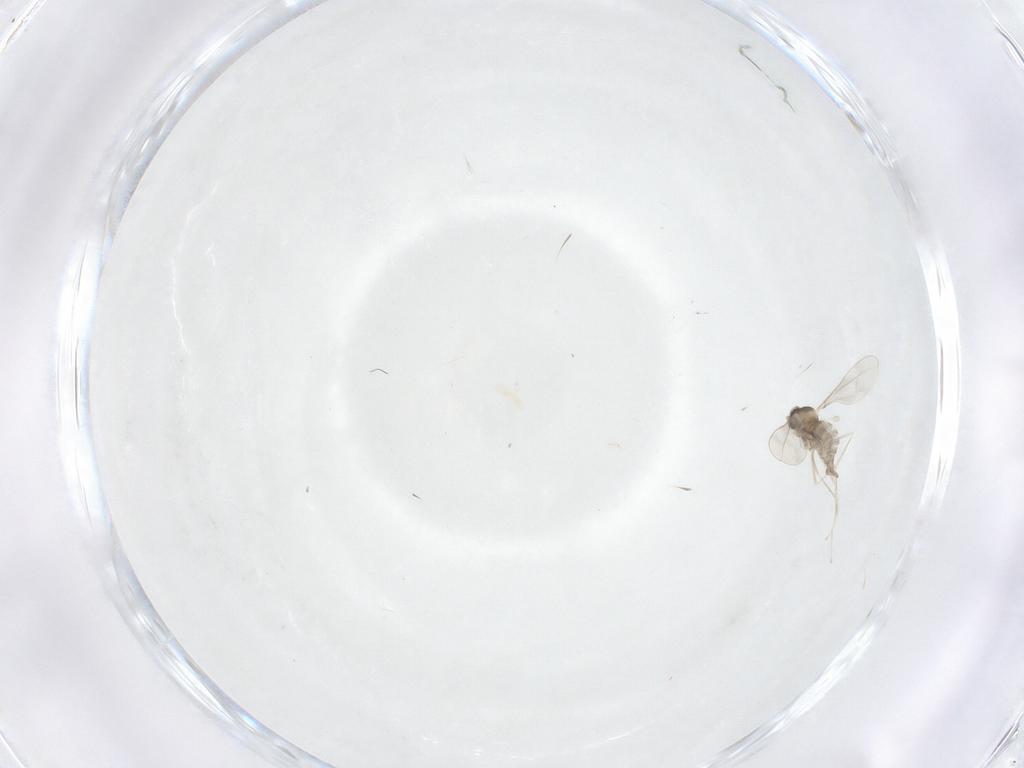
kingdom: Animalia
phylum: Arthropoda
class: Insecta
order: Diptera
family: Cecidomyiidae
